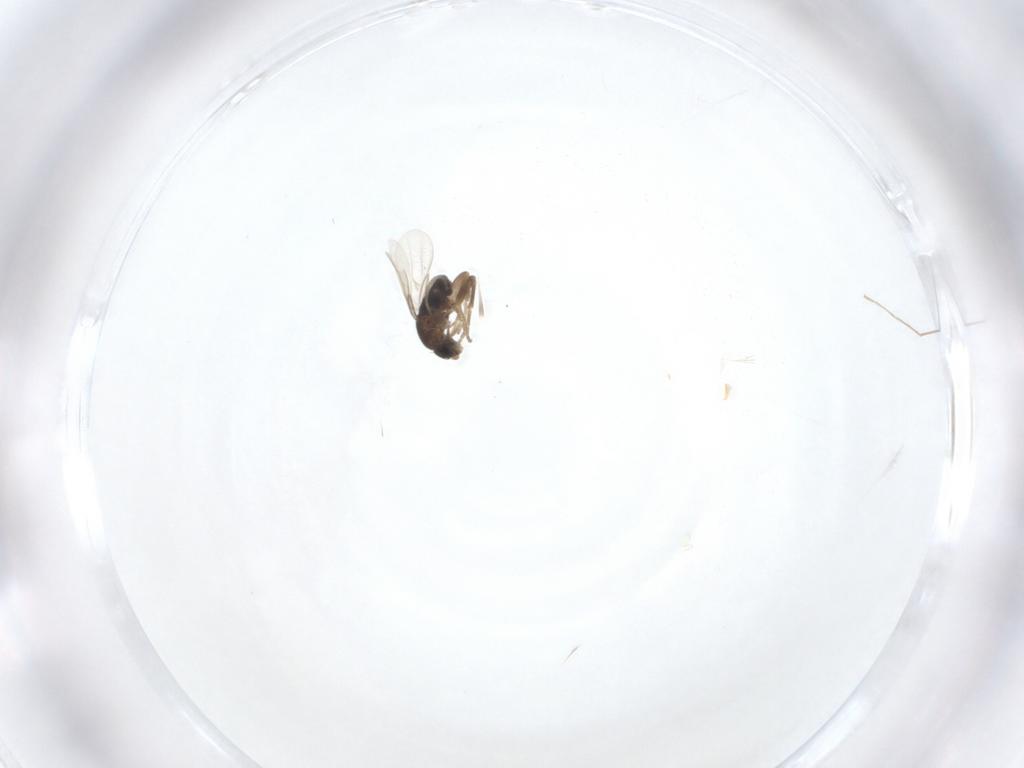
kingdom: Animalia
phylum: Arthropoda
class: Insecta
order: Diptera
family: Phoridae
